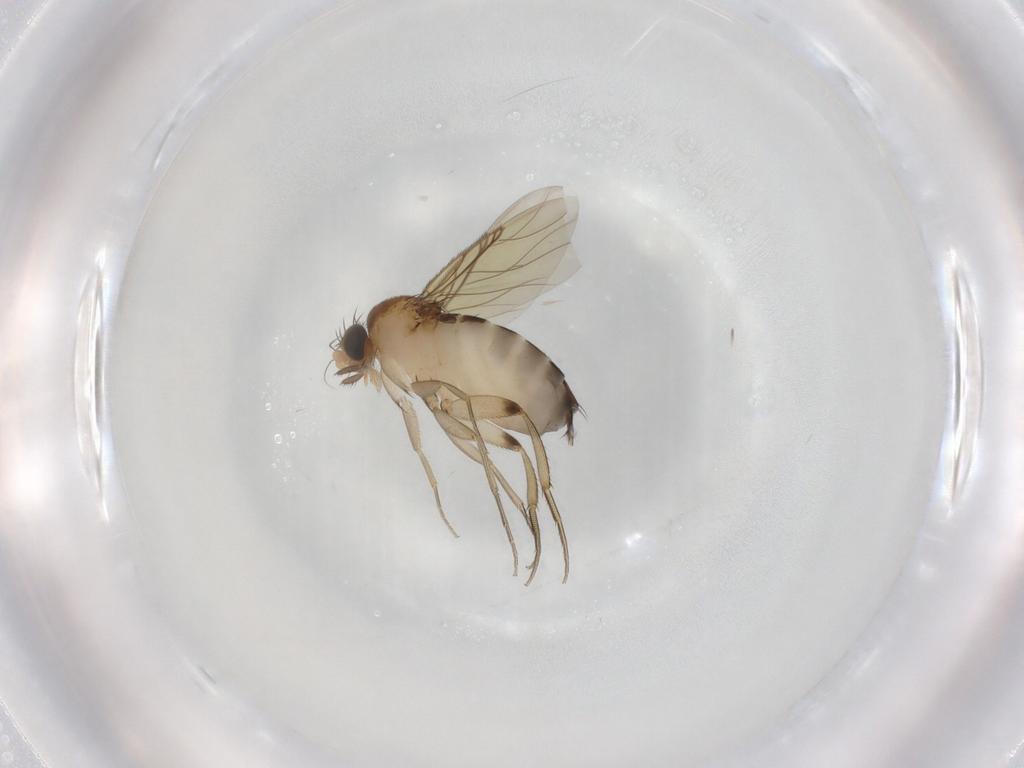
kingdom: Animalia
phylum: Arthropoda
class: Insecta
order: Diptera
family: Phoridae
